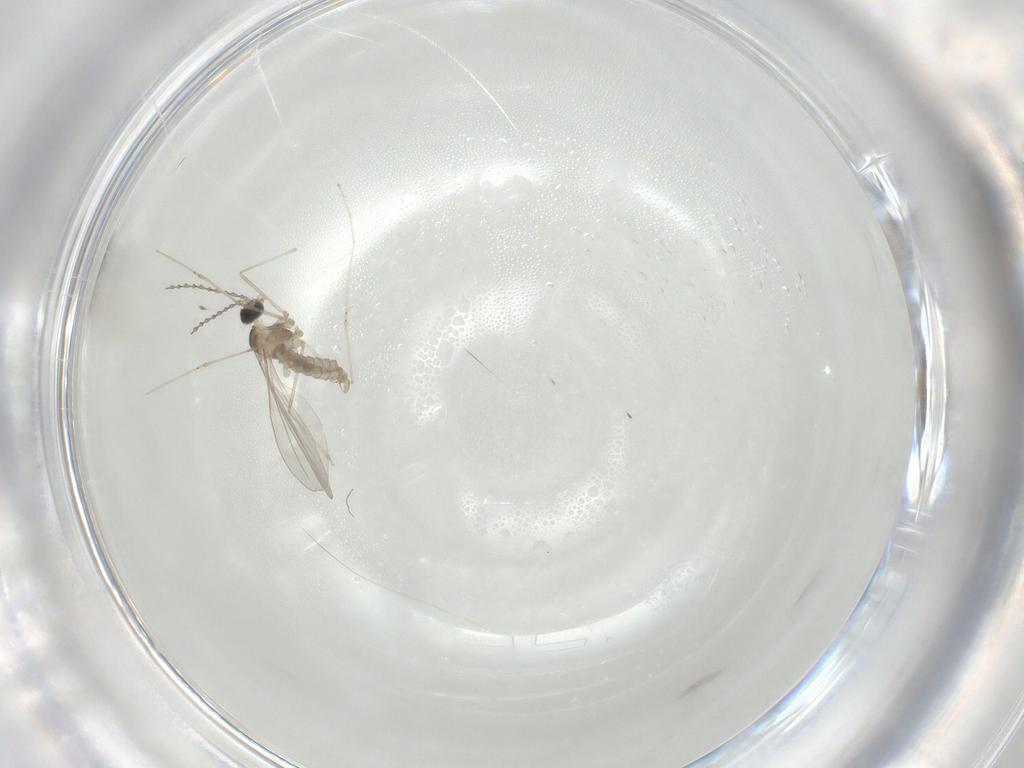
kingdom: Animalia
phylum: Arthropoda
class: Insecta
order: Diptera
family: Cecidomyiidae
